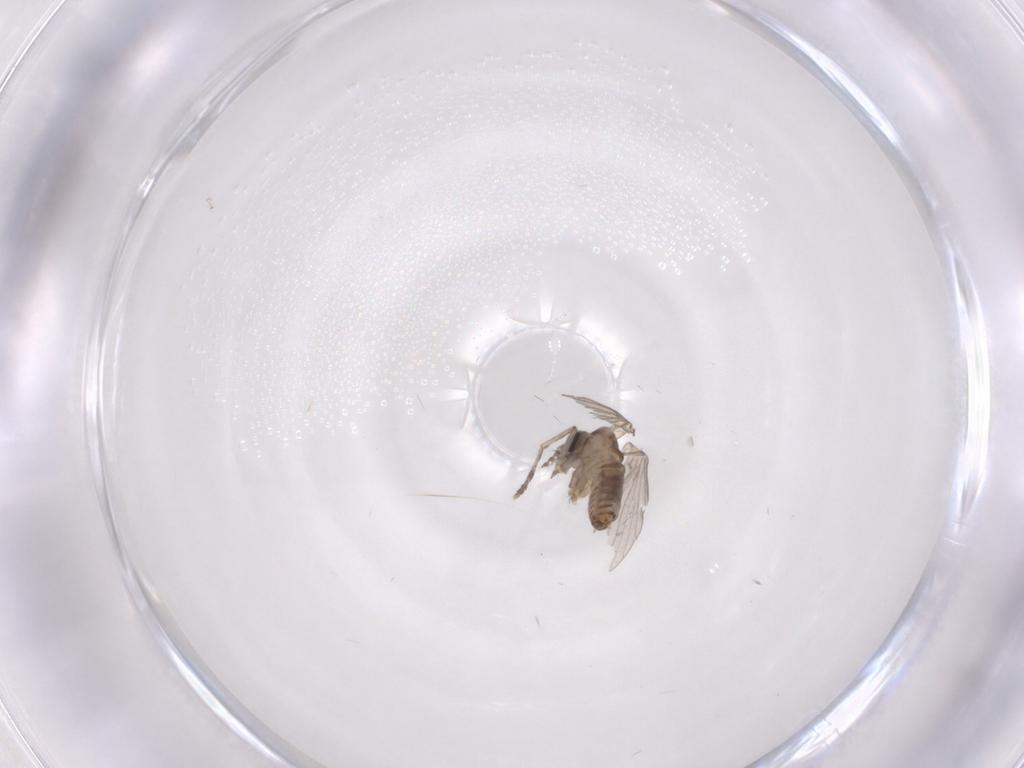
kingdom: Animalia
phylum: Arthropoda
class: Insecta
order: Diptera
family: Psychodidae
